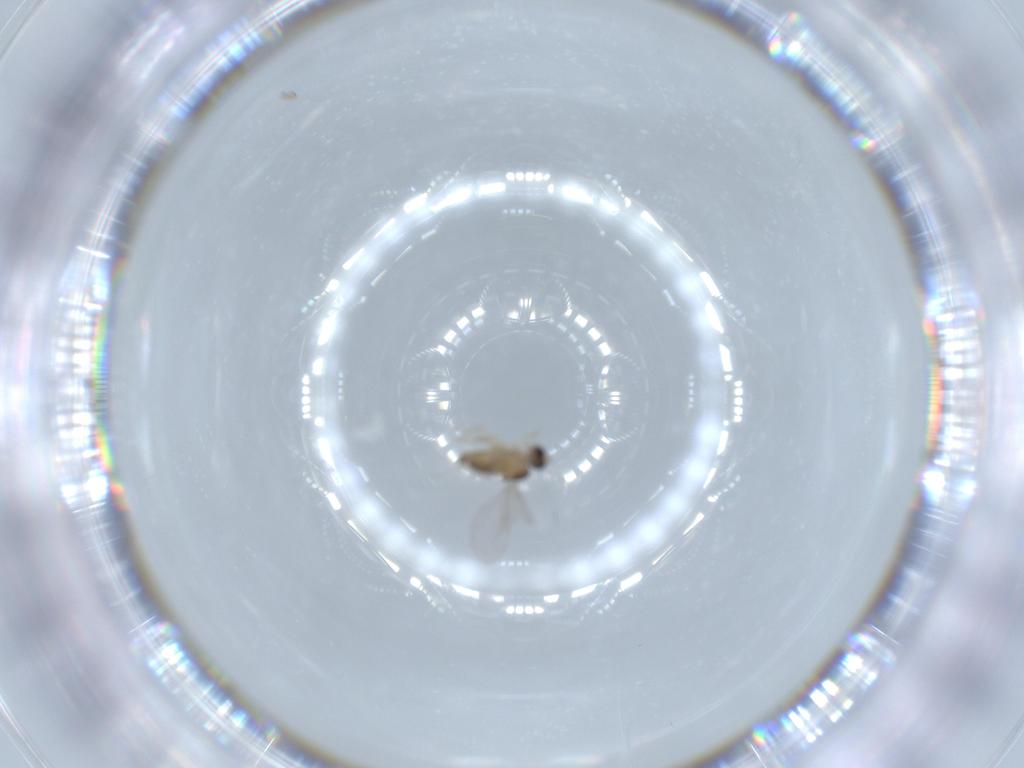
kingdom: Animalia
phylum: Arthropoda
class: Insecta
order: Diptera
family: Cecidomyiidae
